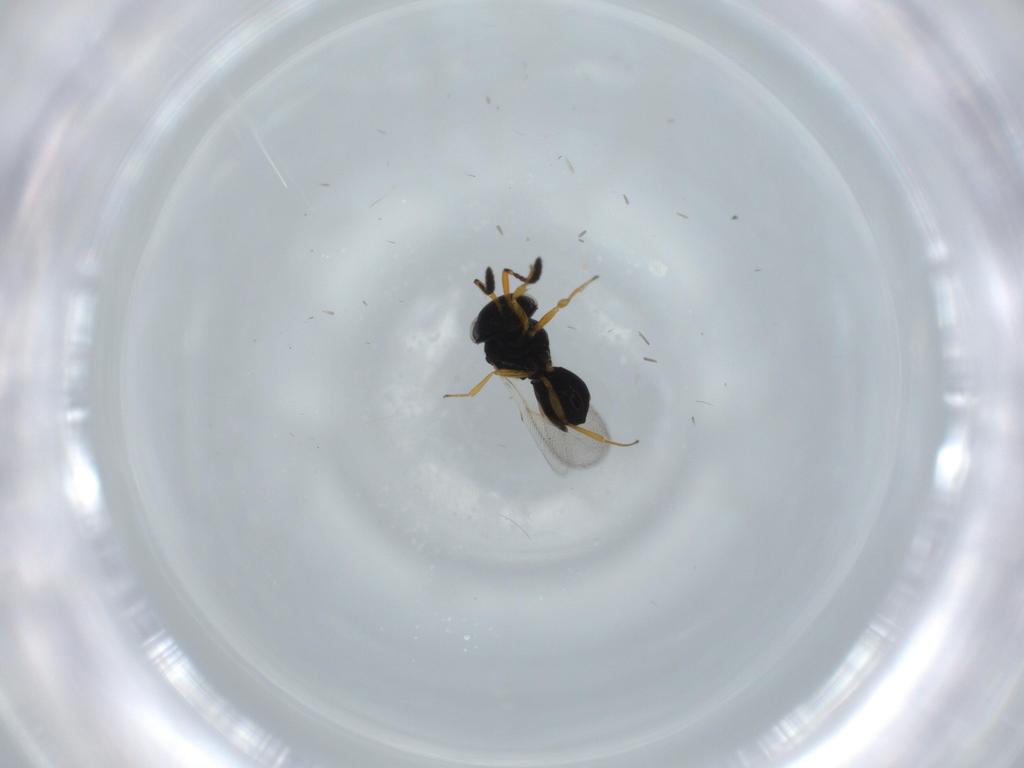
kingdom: Animalia
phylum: Arthropoda
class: Insecta
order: Hymenoptera
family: Scelionidae
